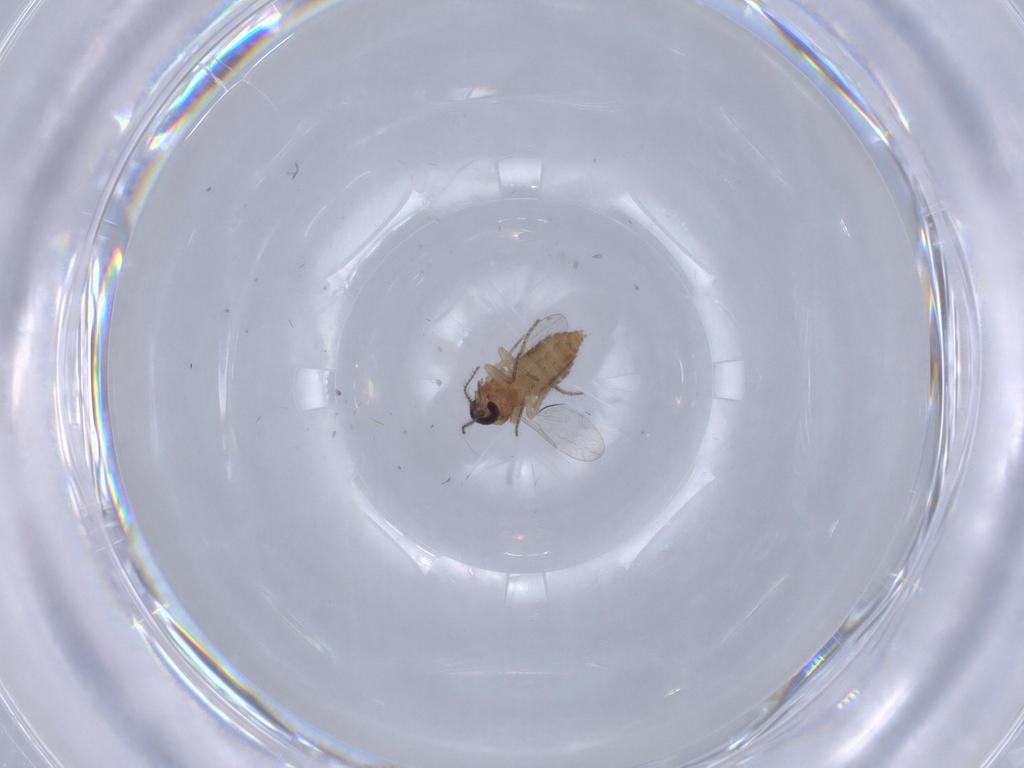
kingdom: Animalia
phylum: Arthropoda
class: Insecta
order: Diptera
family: Ceratopogonidae
